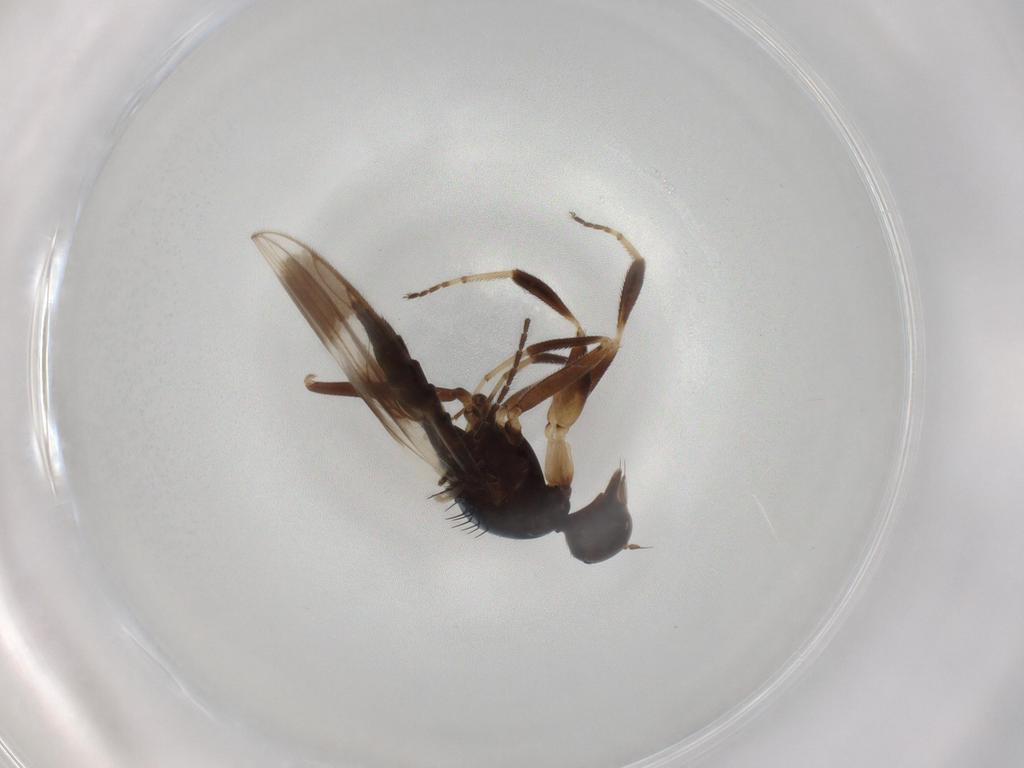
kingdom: Animalia
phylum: Arthropoda
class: Insecta
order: Diptera
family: Hybotidae
